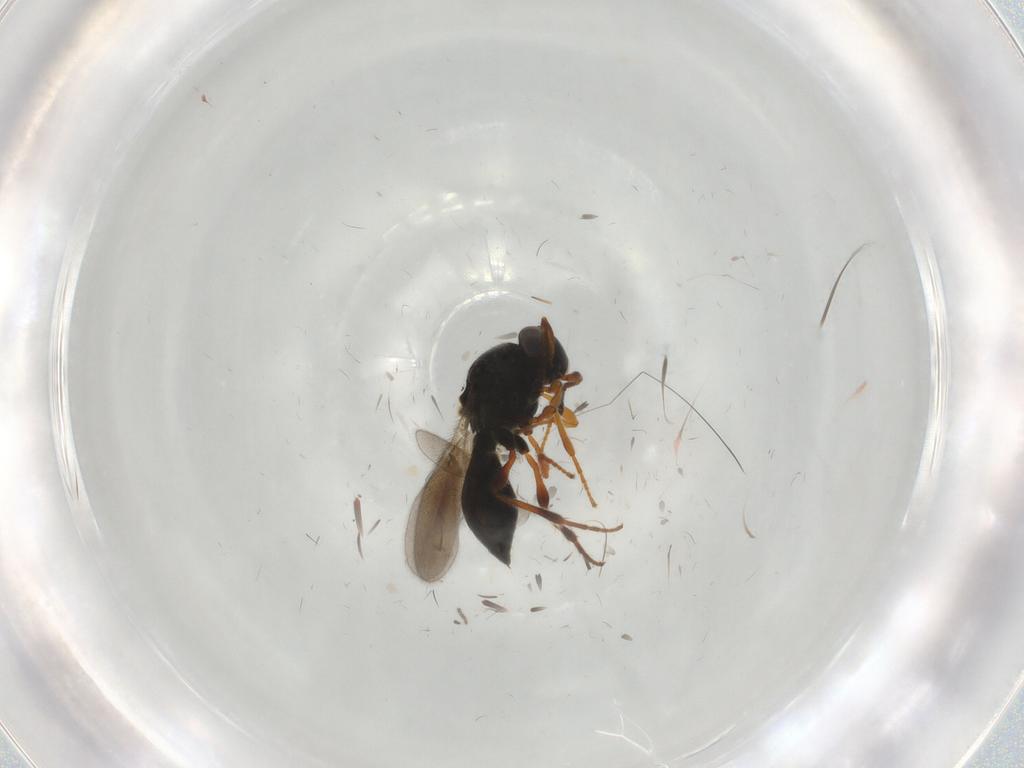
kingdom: Animalia
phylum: Arthropoda
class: Insecta
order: Hymenoptera
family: Platygastridae
